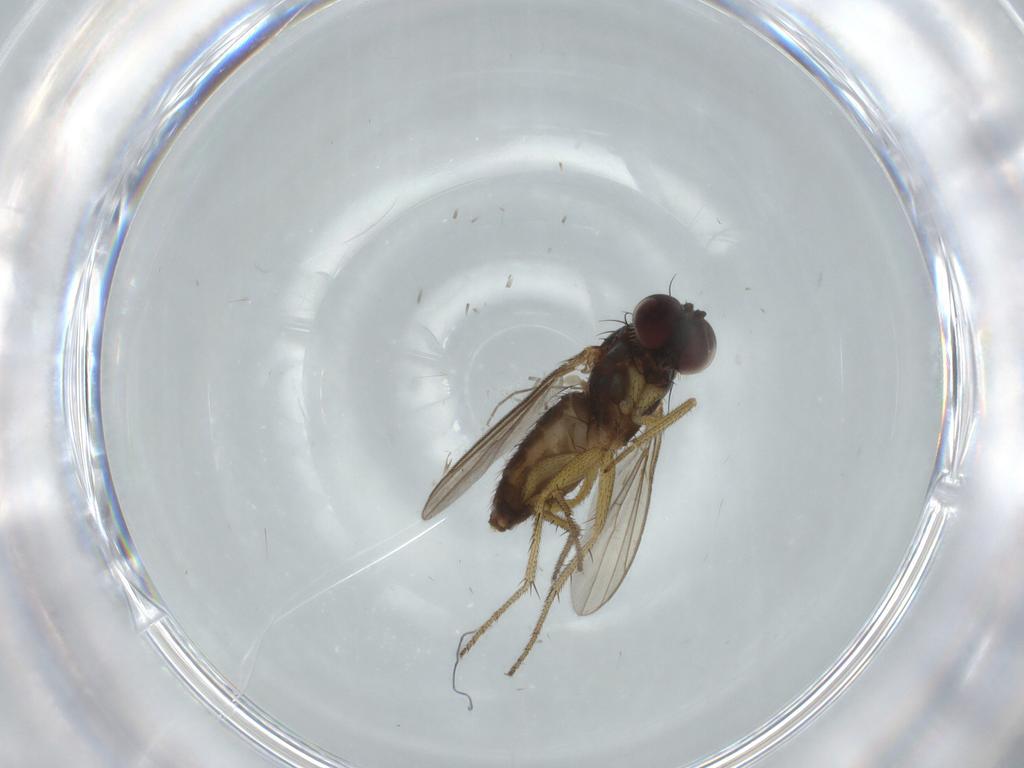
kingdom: Animalia
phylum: Arthropoda
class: Insecta
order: Diptera
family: Dolichopodidae
